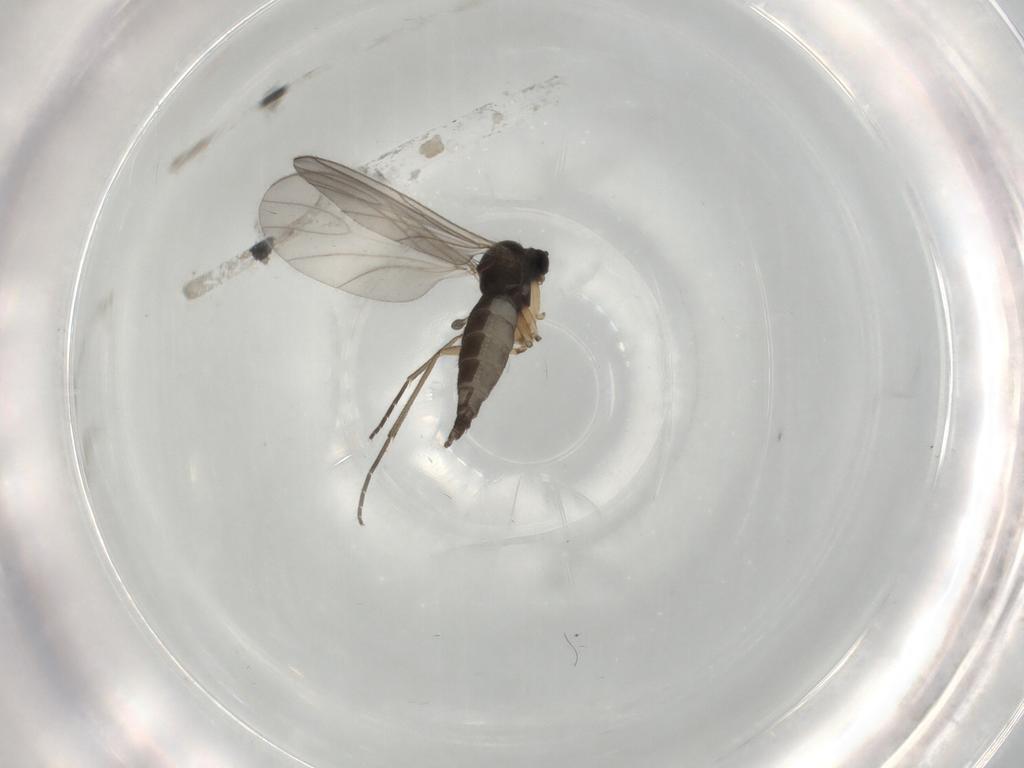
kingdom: Animalia
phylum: Arthropoda
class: Insecta
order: Diptera
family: Sciaridae
